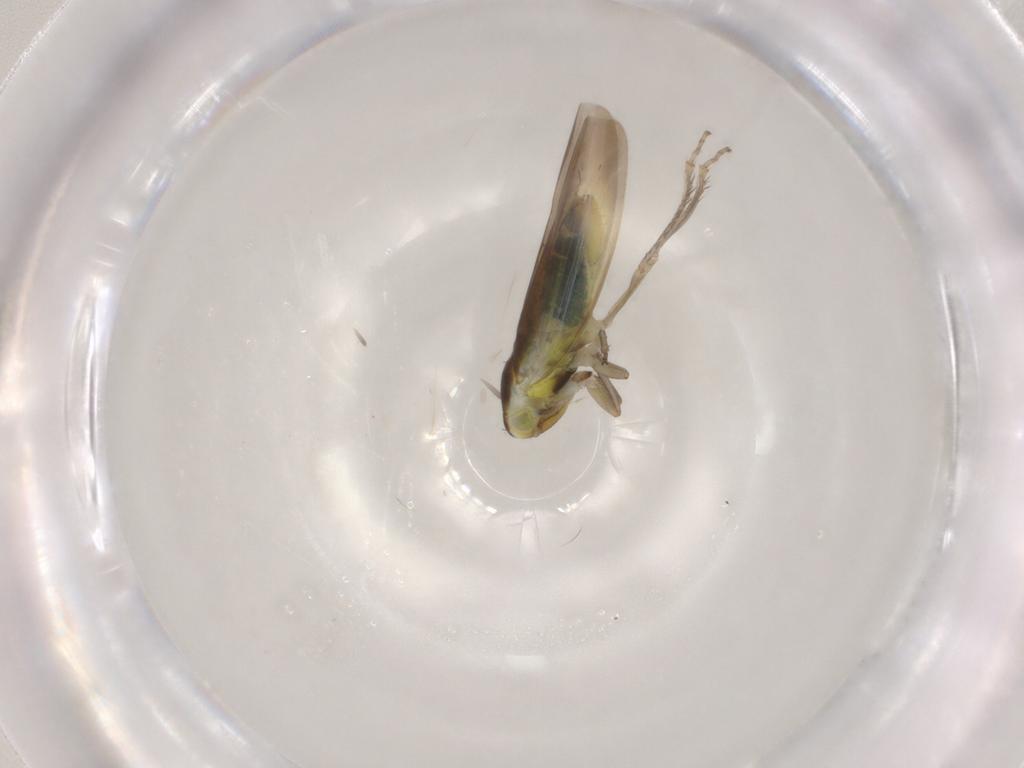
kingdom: Animalia
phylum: Arthropoda
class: Insecta
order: Hemiptera
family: Cicadellidae
